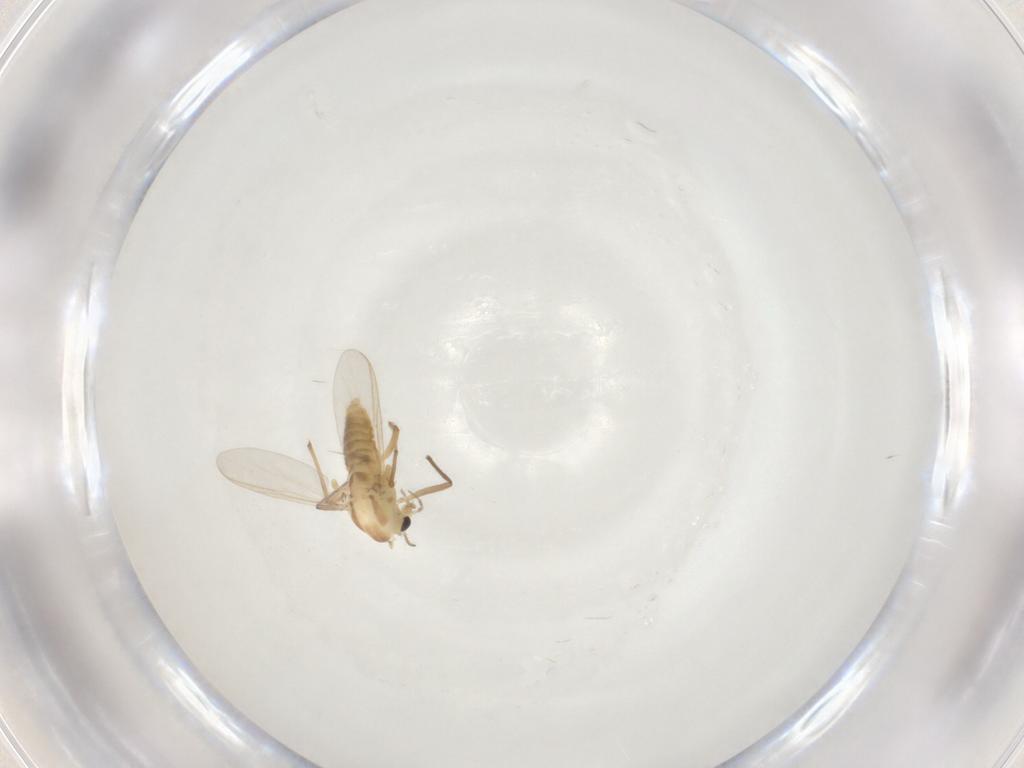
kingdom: Animalia
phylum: Arthropoda
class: Insecta
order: Diptera
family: Chironomidae
